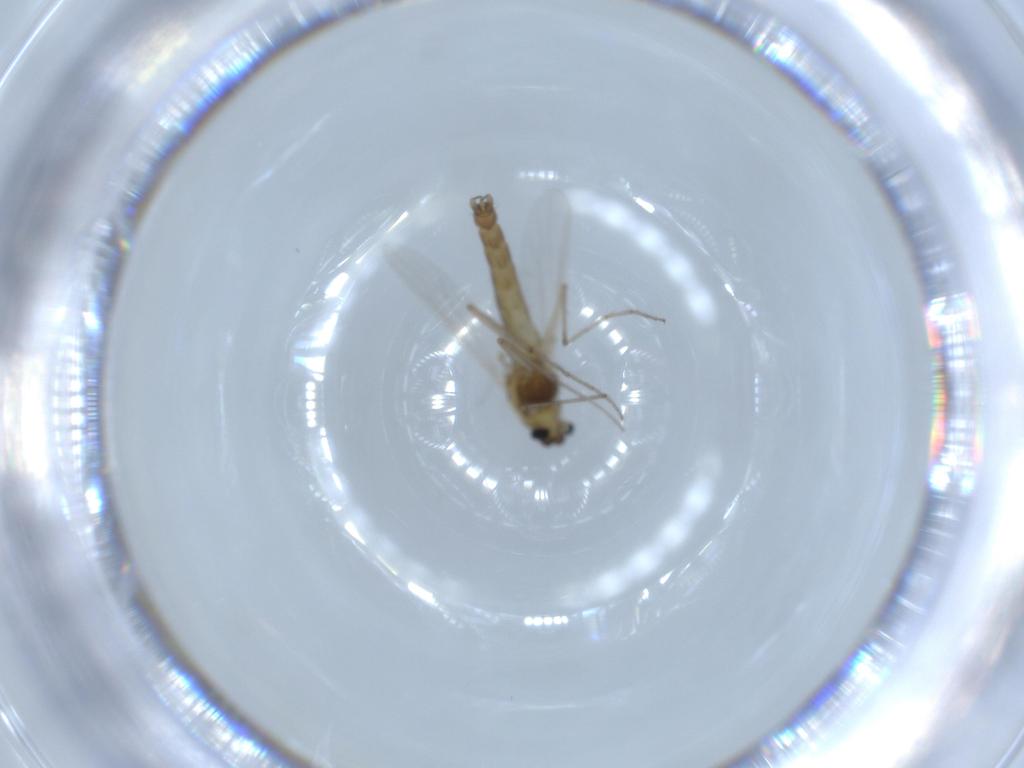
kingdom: Animalia
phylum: Arthropoda
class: Insecta
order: Diptera
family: Chironomidae
